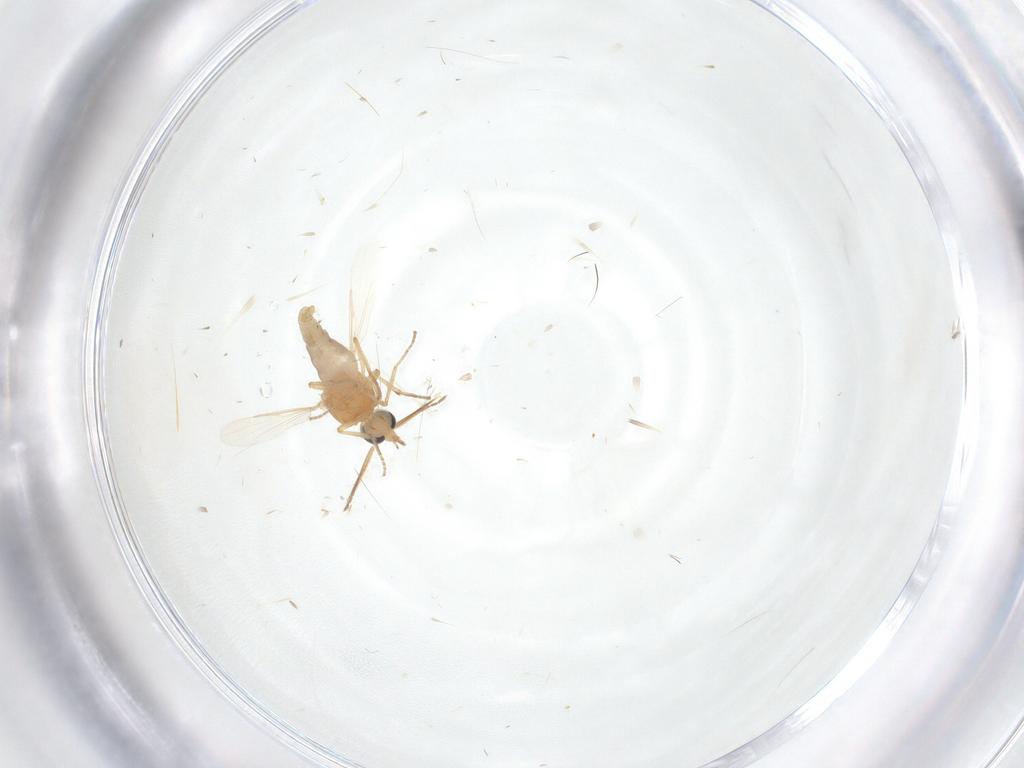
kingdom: Animalia
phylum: Arthropoda
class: Insecta
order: Diptera
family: Ceratopogonidae
